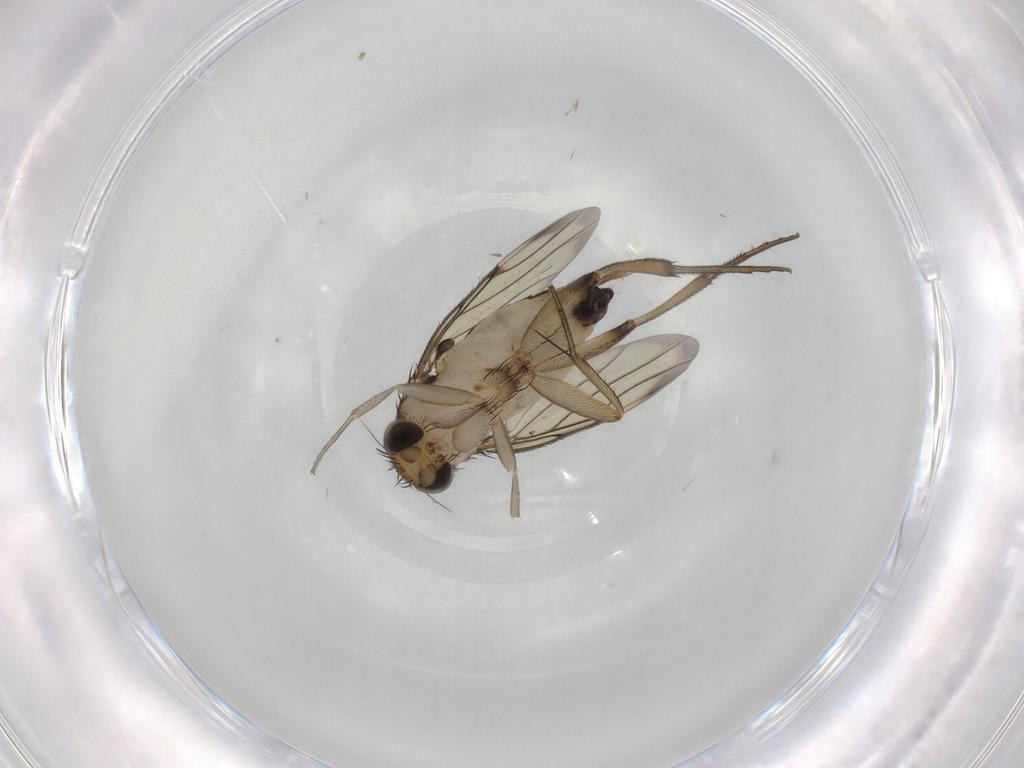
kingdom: Animalia
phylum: Arthropoda
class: Insecta
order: Diptera
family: Phoridae
